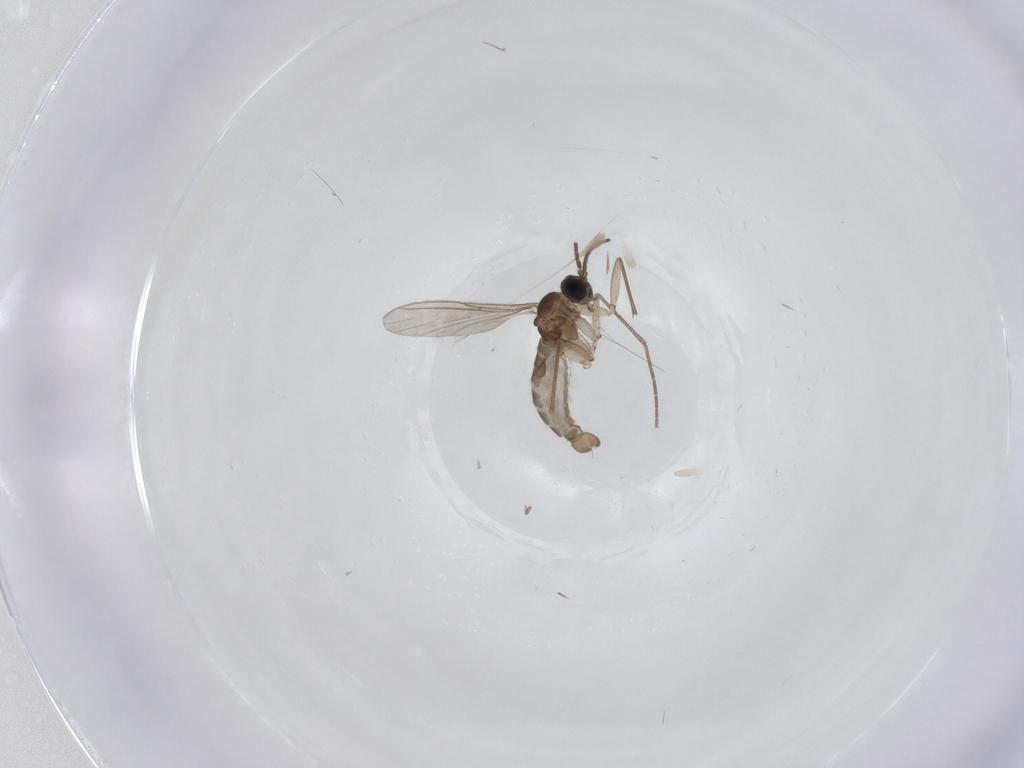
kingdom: Animalia
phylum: Arthropoda
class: Insecta
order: Diptera
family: Sciaridae
